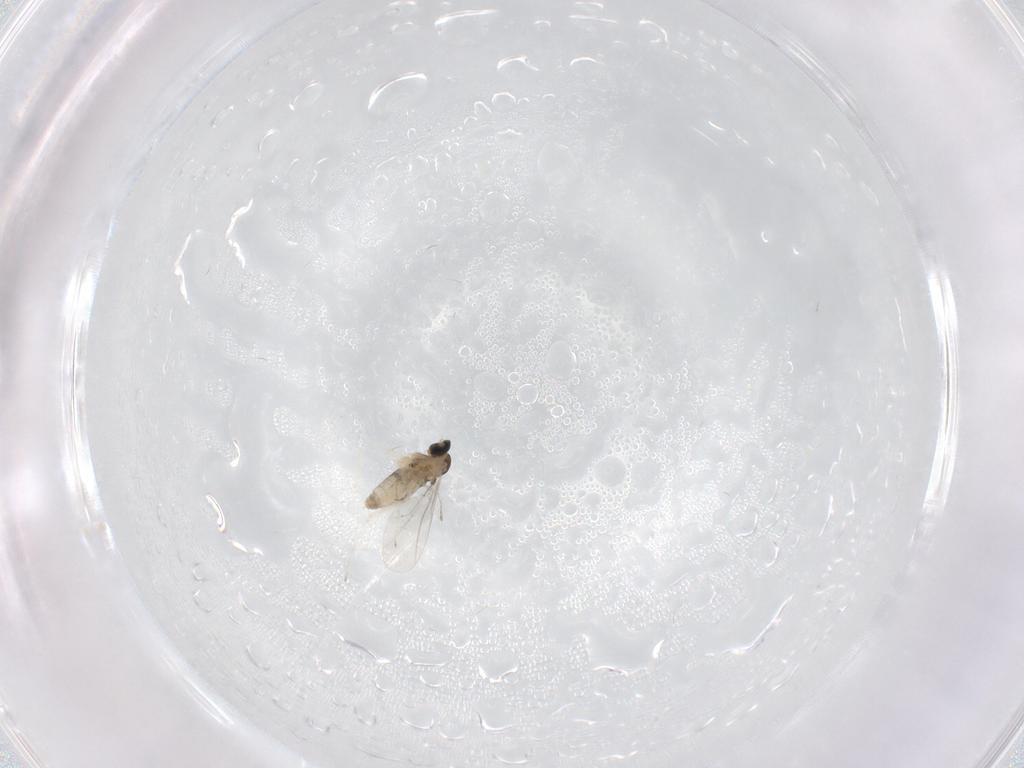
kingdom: Animalia
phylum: Arthropoda
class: Insecta
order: Diptera
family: Cecidomyiidae
